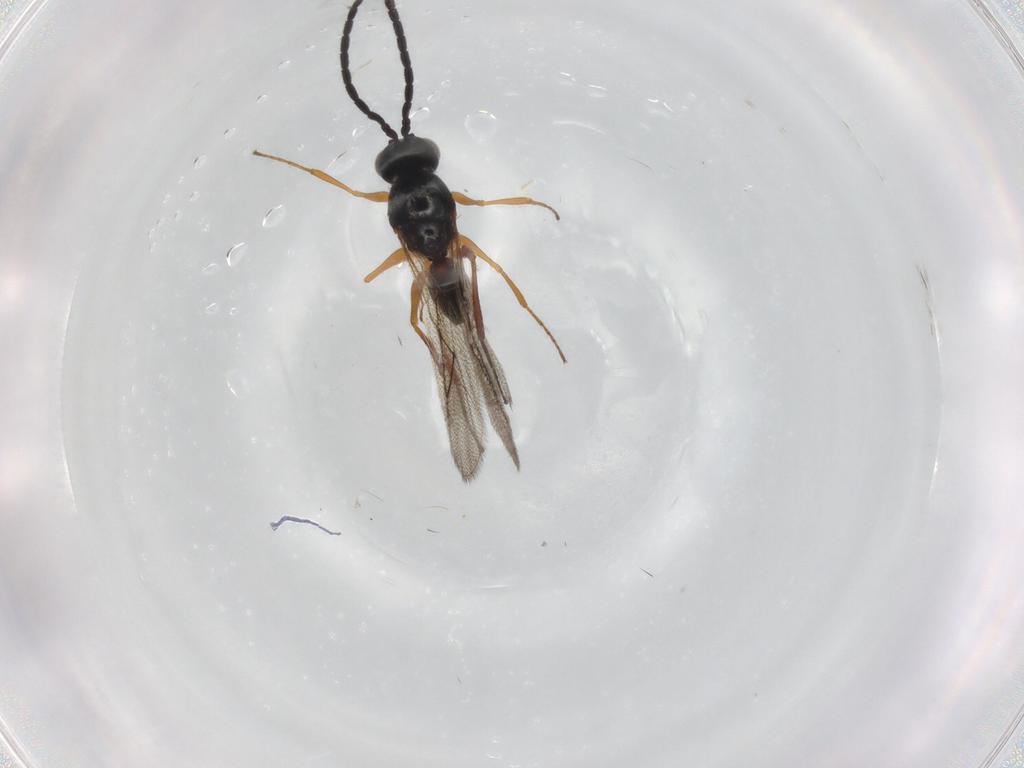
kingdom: Animalia
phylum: Arthropoda
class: Insecta
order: Hymenoptera
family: Figitidae
